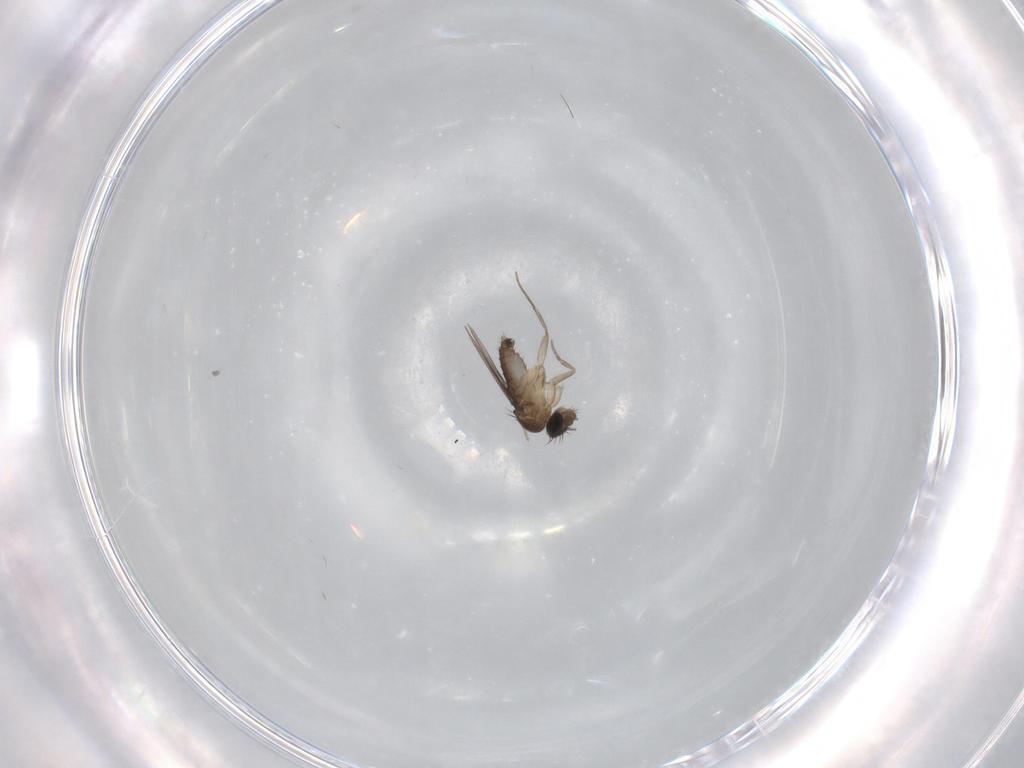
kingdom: Animalia
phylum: Arthropoda
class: Insecta
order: Diptera
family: Phoridae
